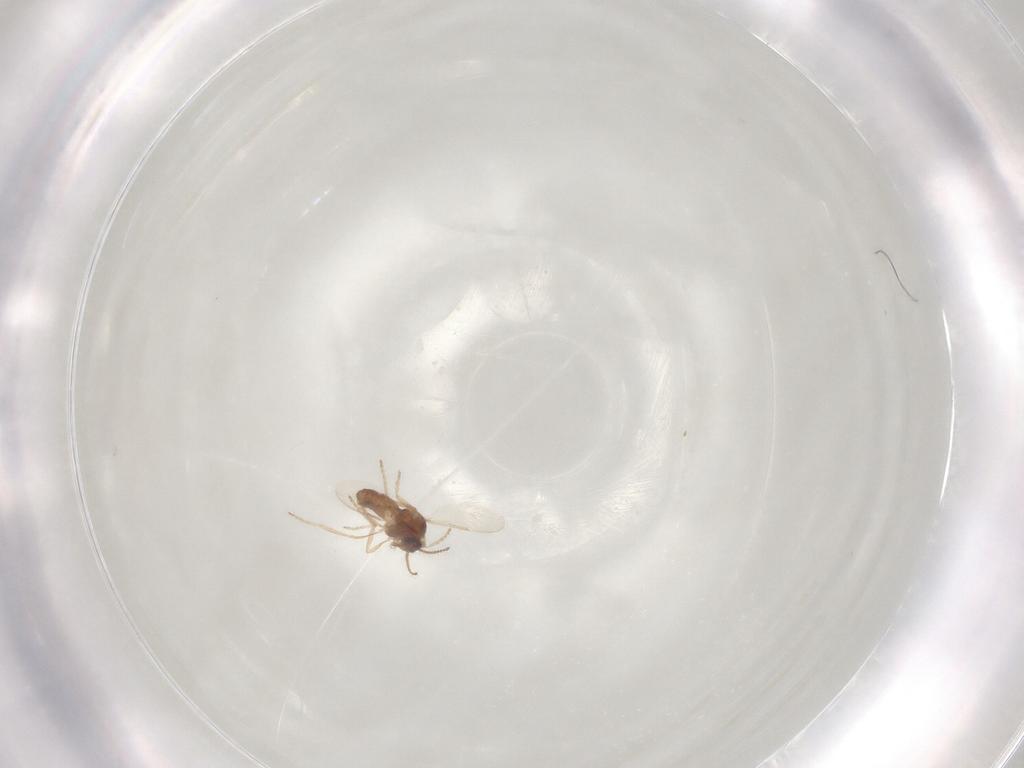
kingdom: Animalia
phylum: Arthropoda
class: Insecta
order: Diptera
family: Ceratopogonidae
